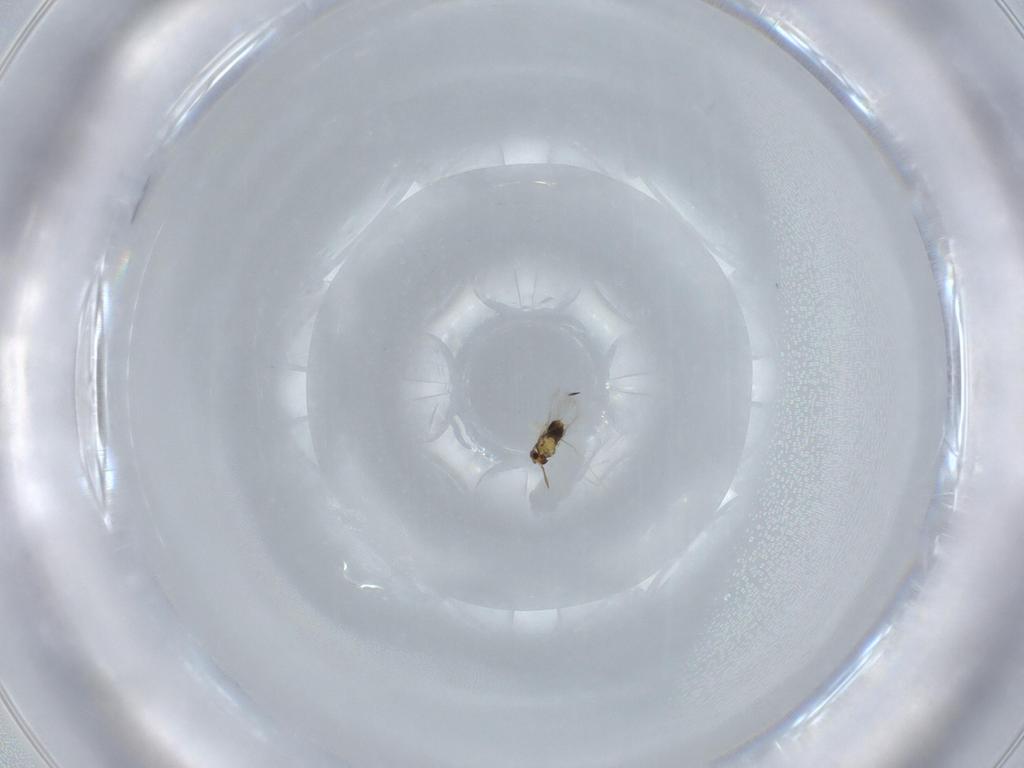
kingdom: Animalia
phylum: Arthropoda
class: Insecta
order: Hymenoptera
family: Aphelinidae
